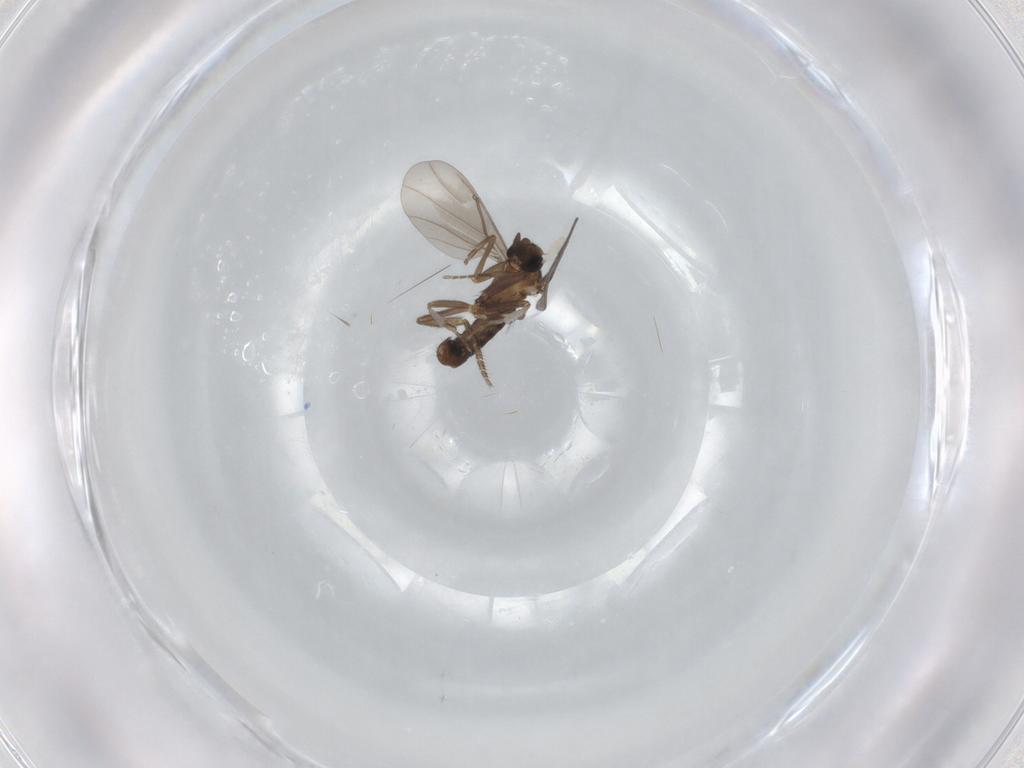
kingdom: Animalia
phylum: Arthropoda
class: Insecta
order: Diptera
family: Phoridae
